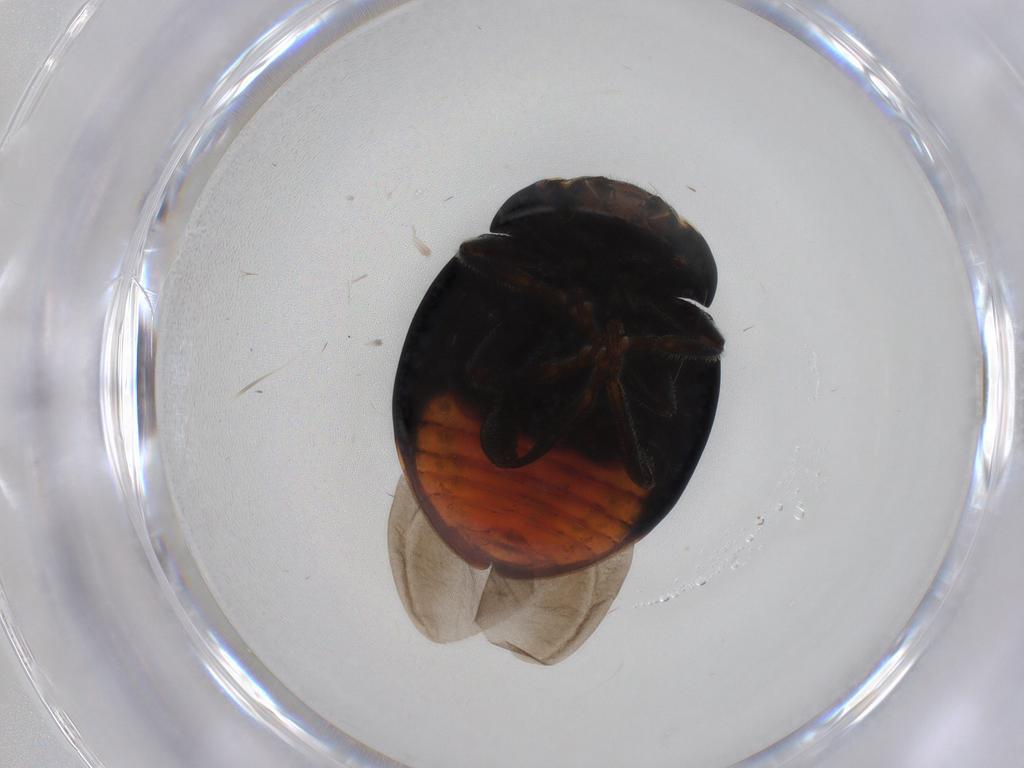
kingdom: Animalia
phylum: Arthropoda
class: Insecta
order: Coleoptera
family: Coccinellidae
